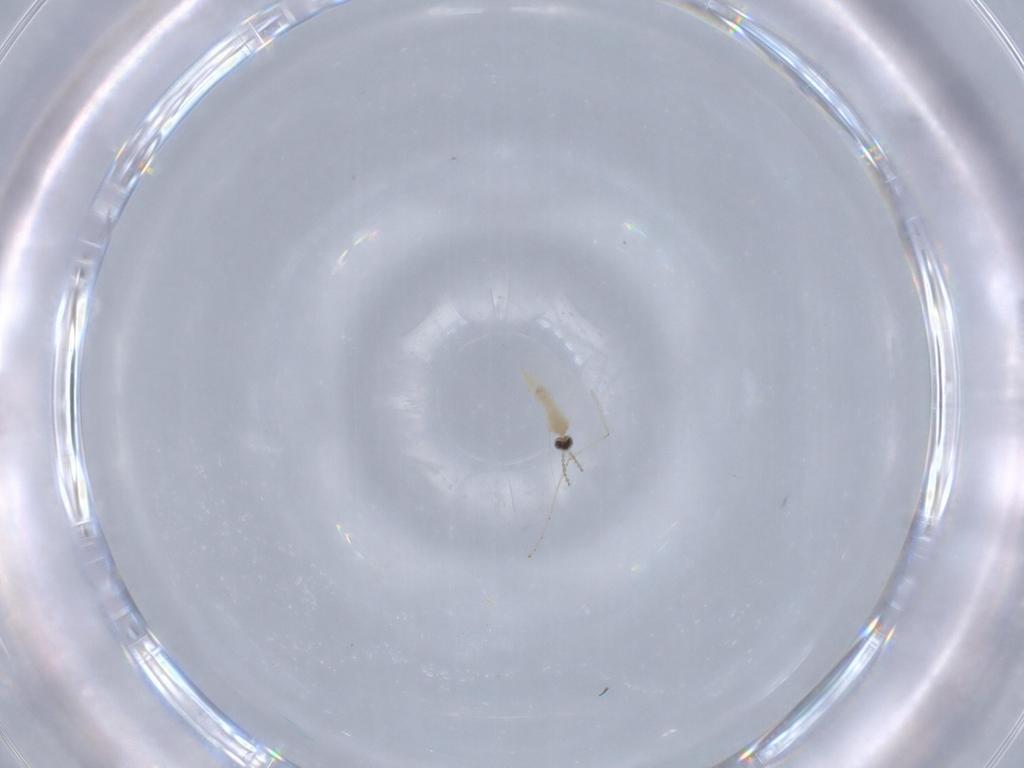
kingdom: Animalia
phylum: Arthropoda
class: Insecta
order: Diptera
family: Cecidomyiidae
